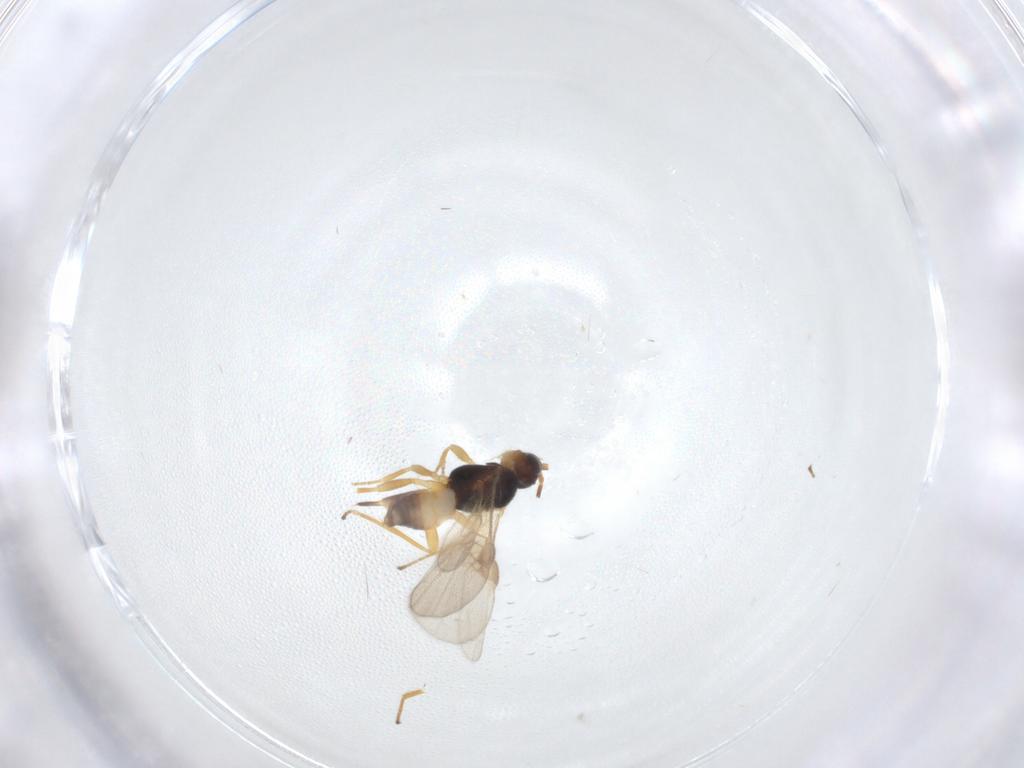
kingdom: Animalia
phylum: Arthropoda
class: Insecta
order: Hymenoptera
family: Braconidae
